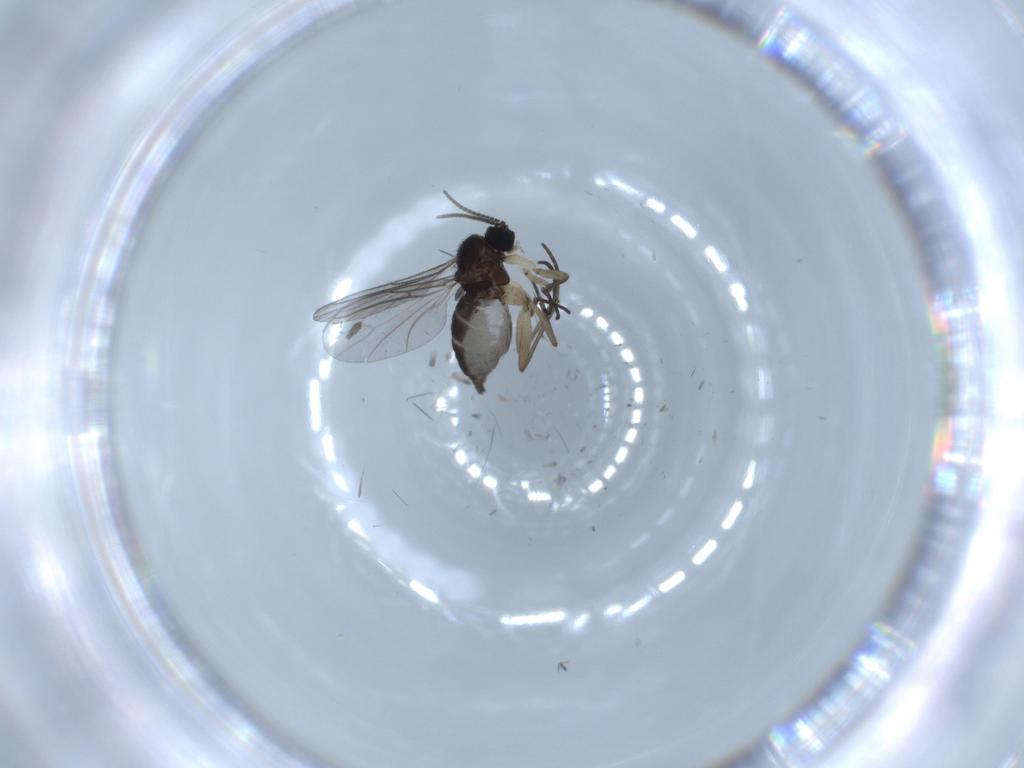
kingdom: Animalia
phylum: Arthropoda
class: Insecta
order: Diptera
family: Sciaridae
